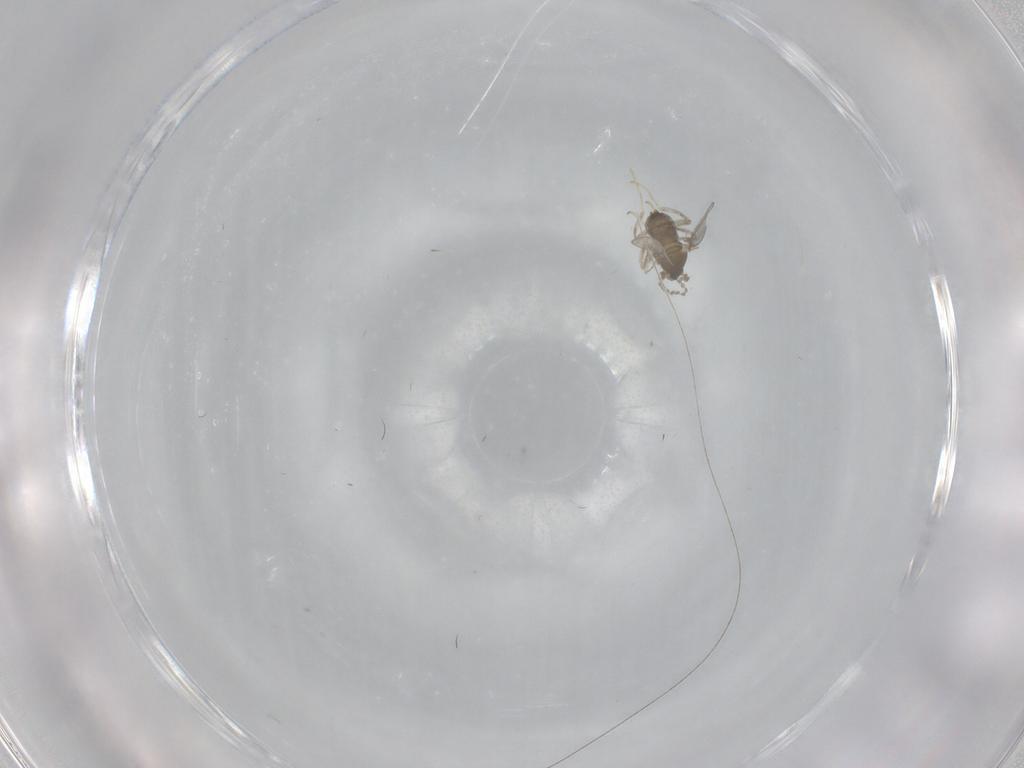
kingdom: Animalia
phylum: Arthropoda
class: Insecta
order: Diptera
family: Cecidomyiidae
